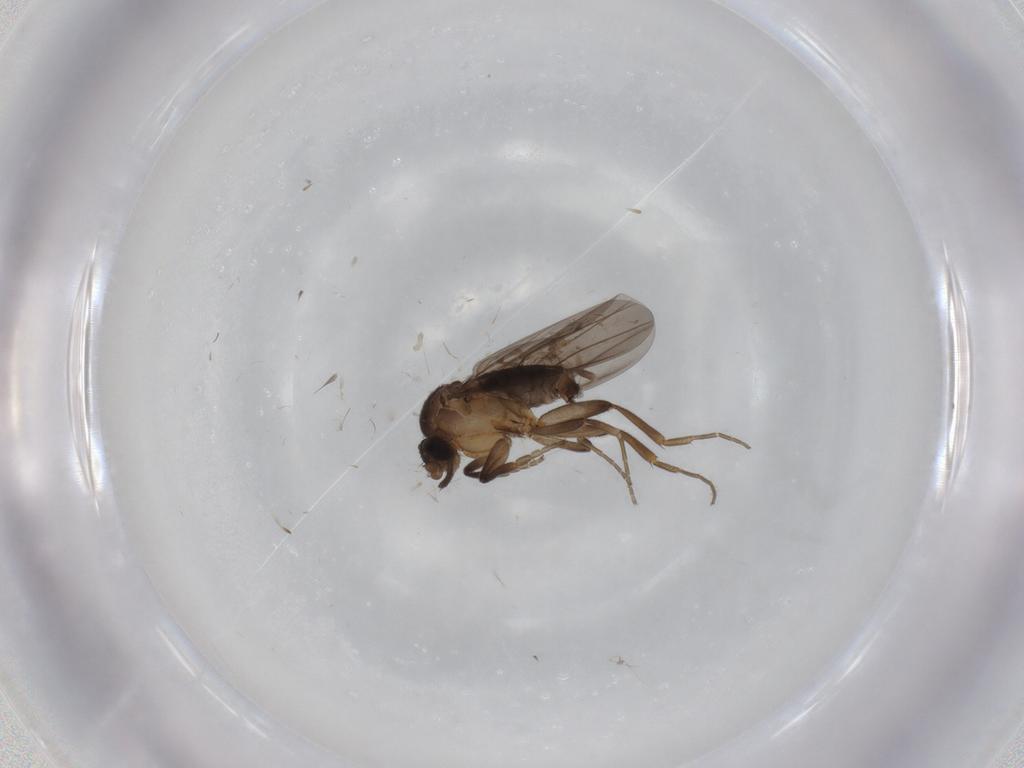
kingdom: Animalia
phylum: Arthropoda
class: Insecta
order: Diptera
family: Phoridae
